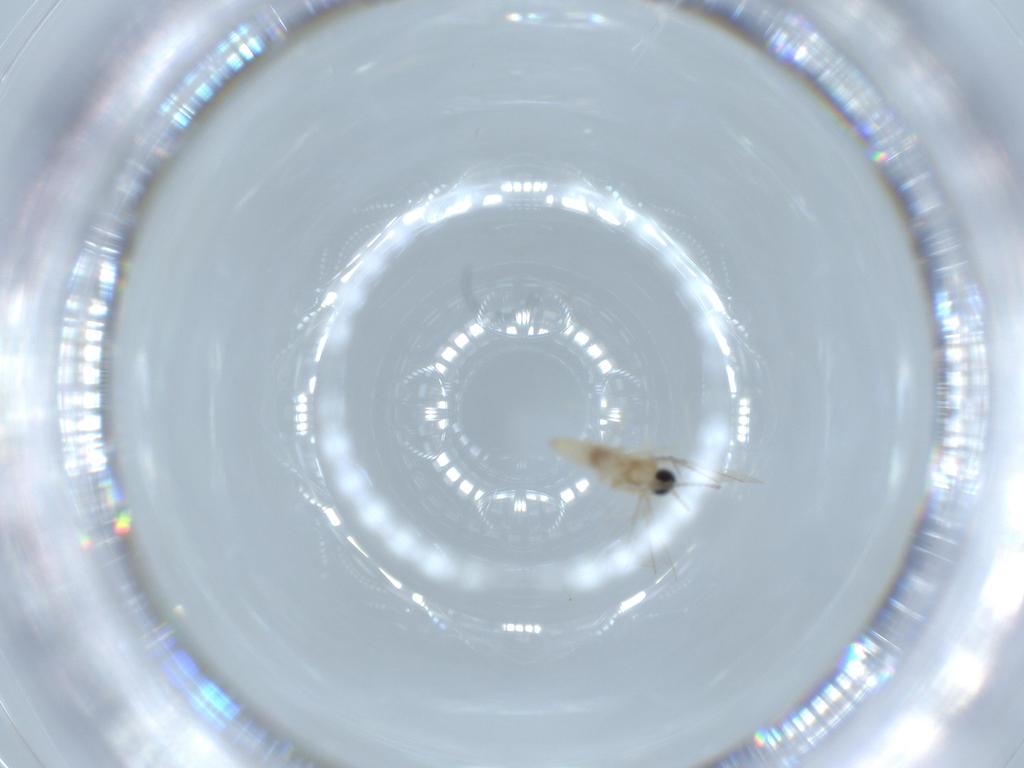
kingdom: Animalia
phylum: Arthropoda
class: Insecta
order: Diptera
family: Cecidomyiidae
